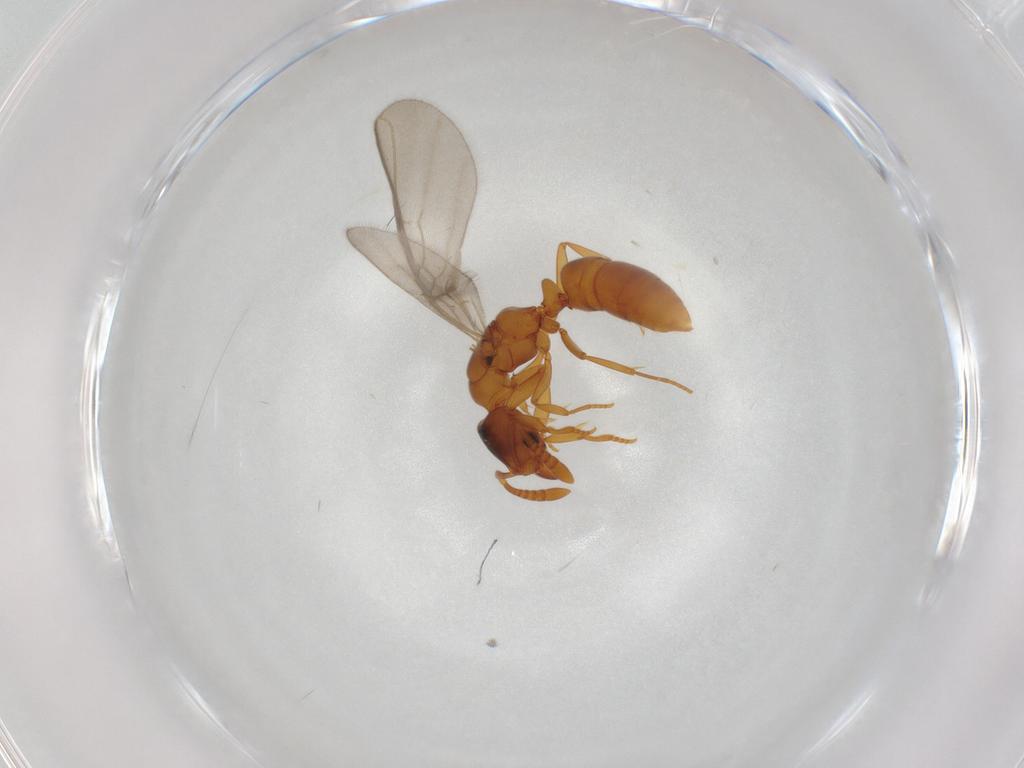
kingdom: Animalia
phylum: Arthropoda
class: Insecta
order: Hymenoptera
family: Formicidae
